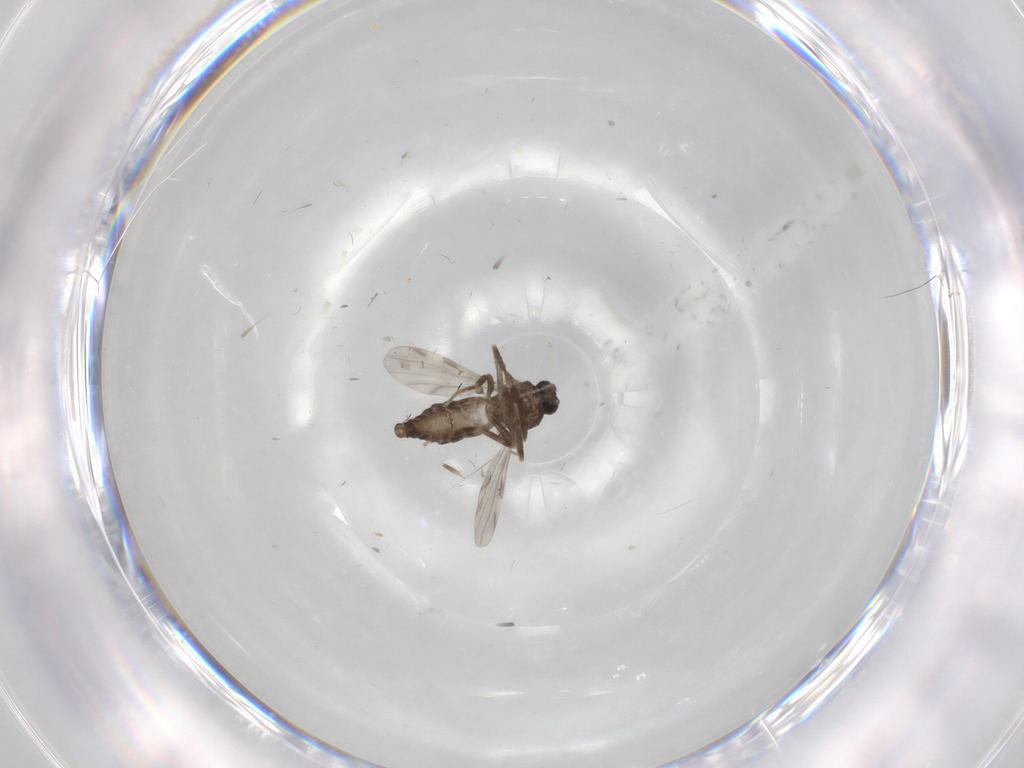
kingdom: Animalia
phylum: Arthropoda
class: Insecta
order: Diptera
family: Ceratopogonidae
